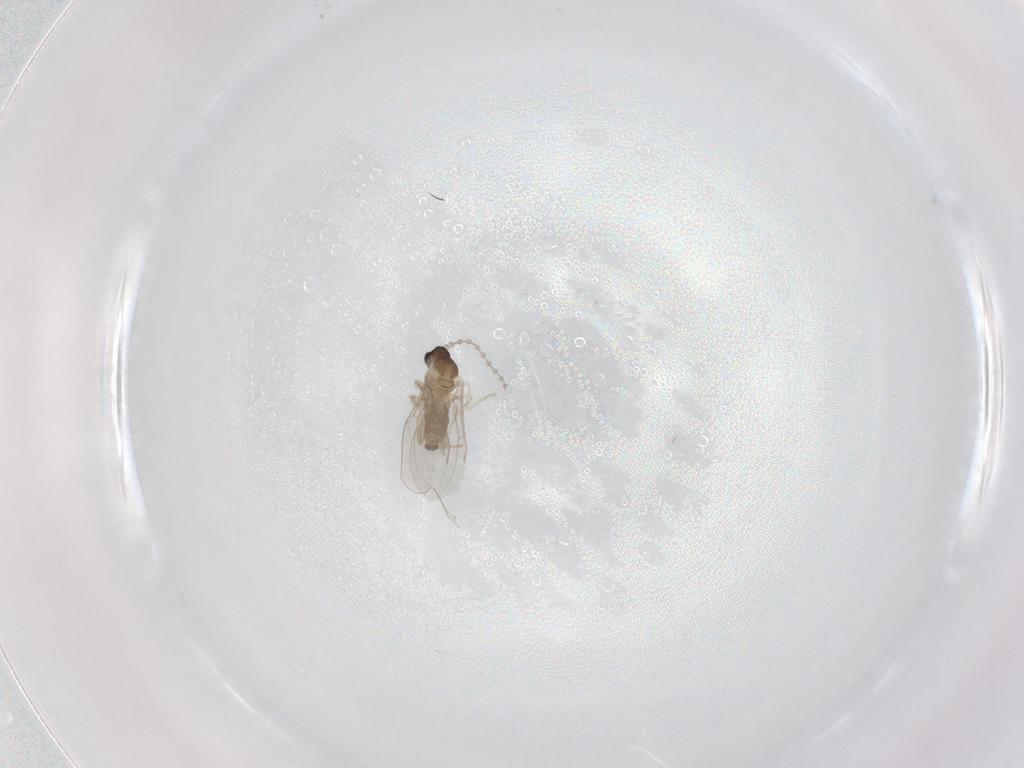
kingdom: Animalia
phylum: Arthropoda
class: Insecta
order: Diptera
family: Cecidomyiidae
